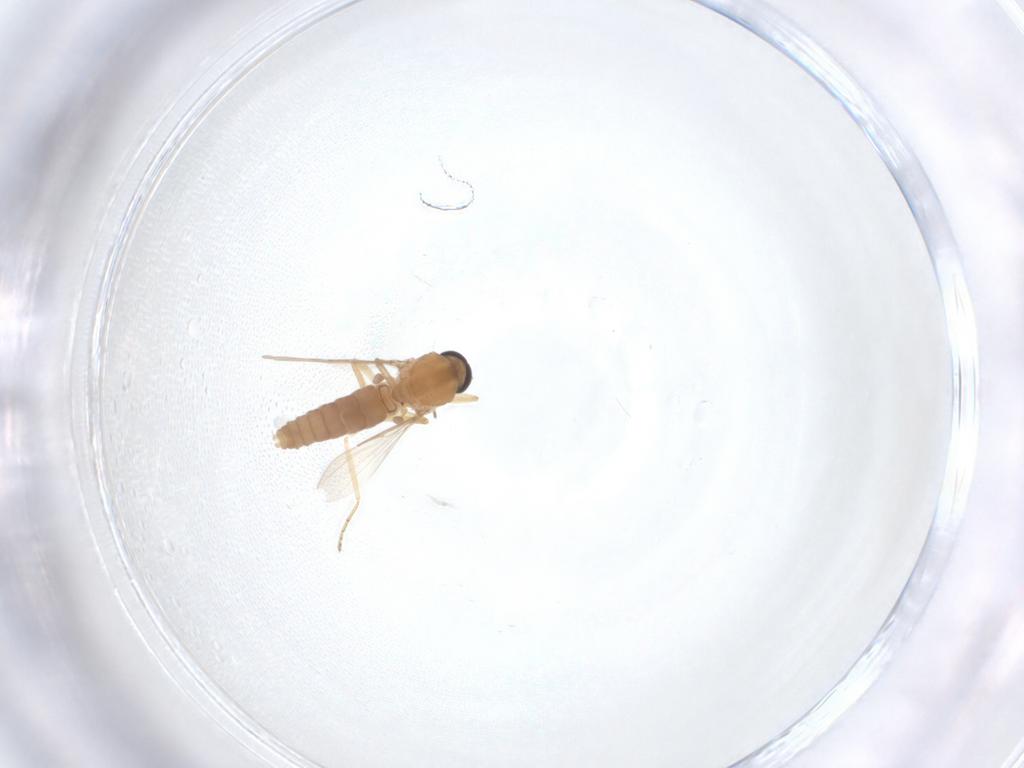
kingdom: Animalia
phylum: Arthropoda
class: Insecta
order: Diptera
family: Ceratopogonidae
